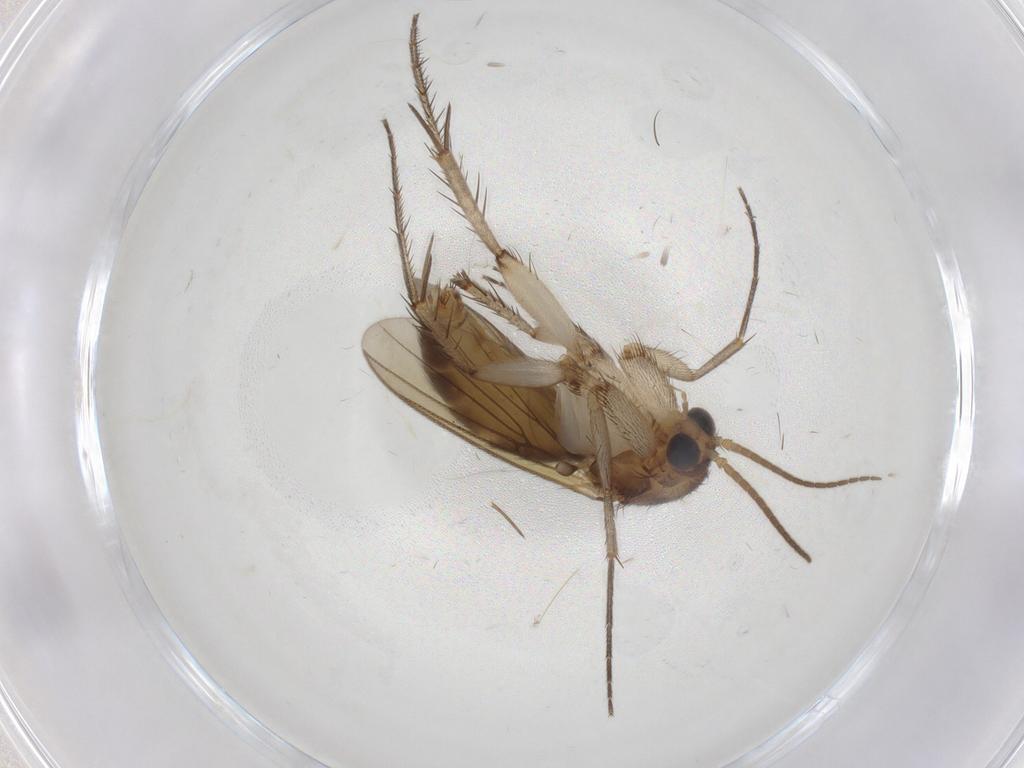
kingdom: Animalia
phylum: Arthropoda
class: Insecta
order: Diptera
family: Mycetophilidae
